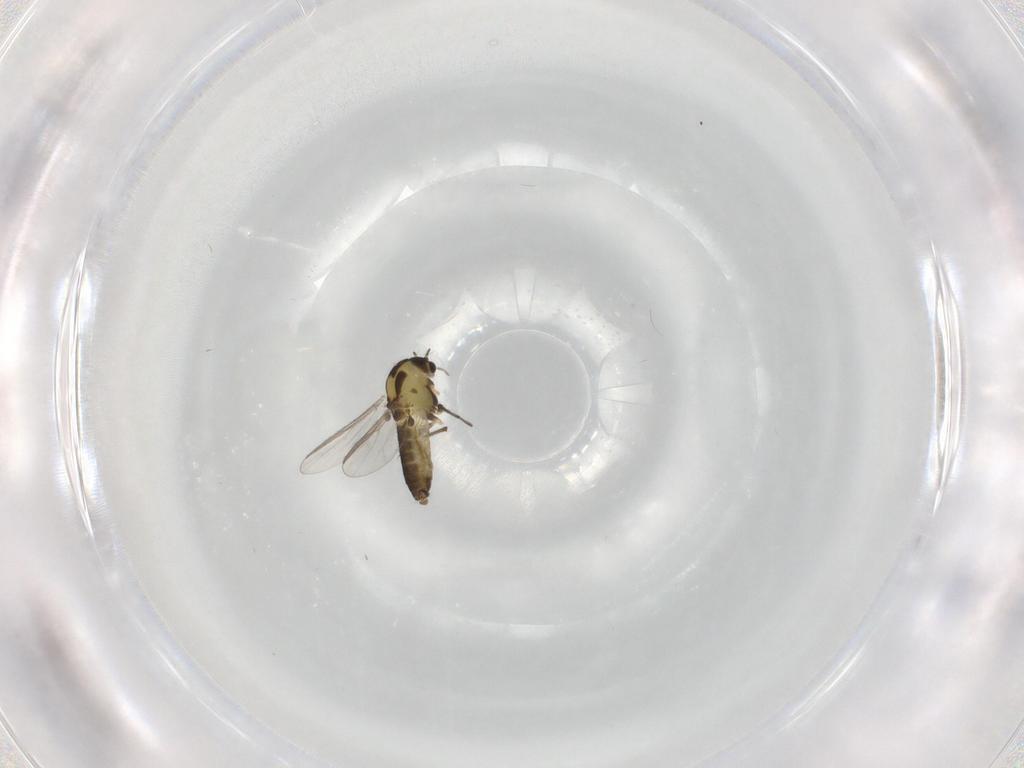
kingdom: Animalia
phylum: Arthropoda
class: Insecta
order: Diptera
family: Chironomidae
